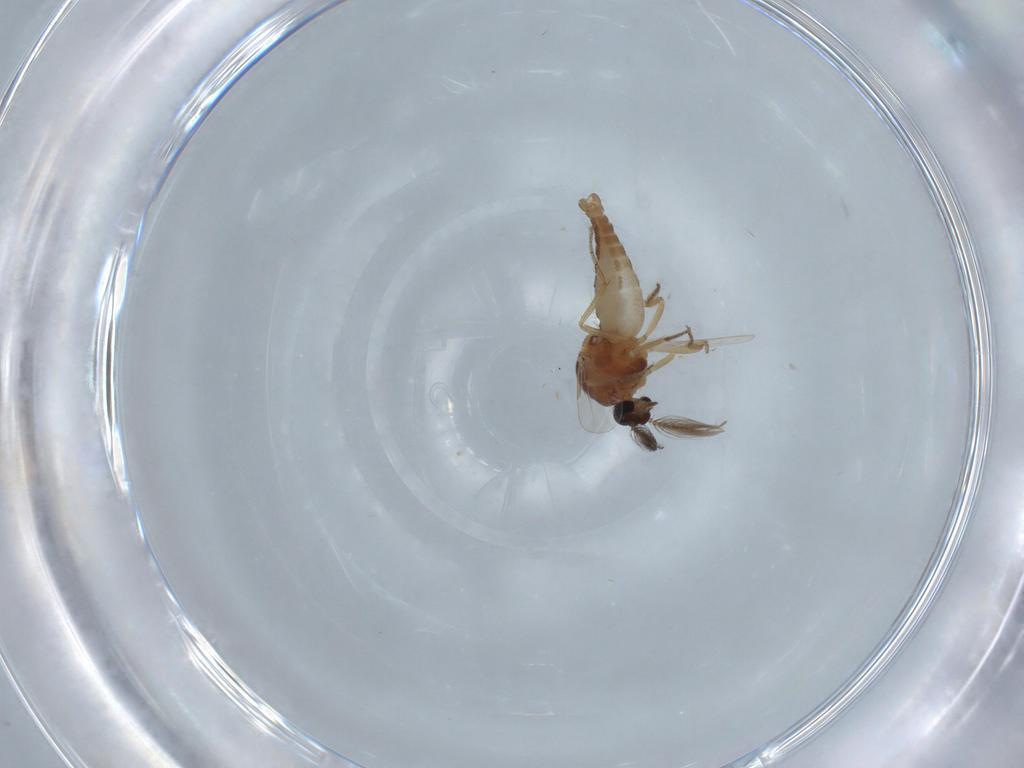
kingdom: Animalia
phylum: Arthropoda
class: Insecta
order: Diptera
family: Ceratopogonidae
